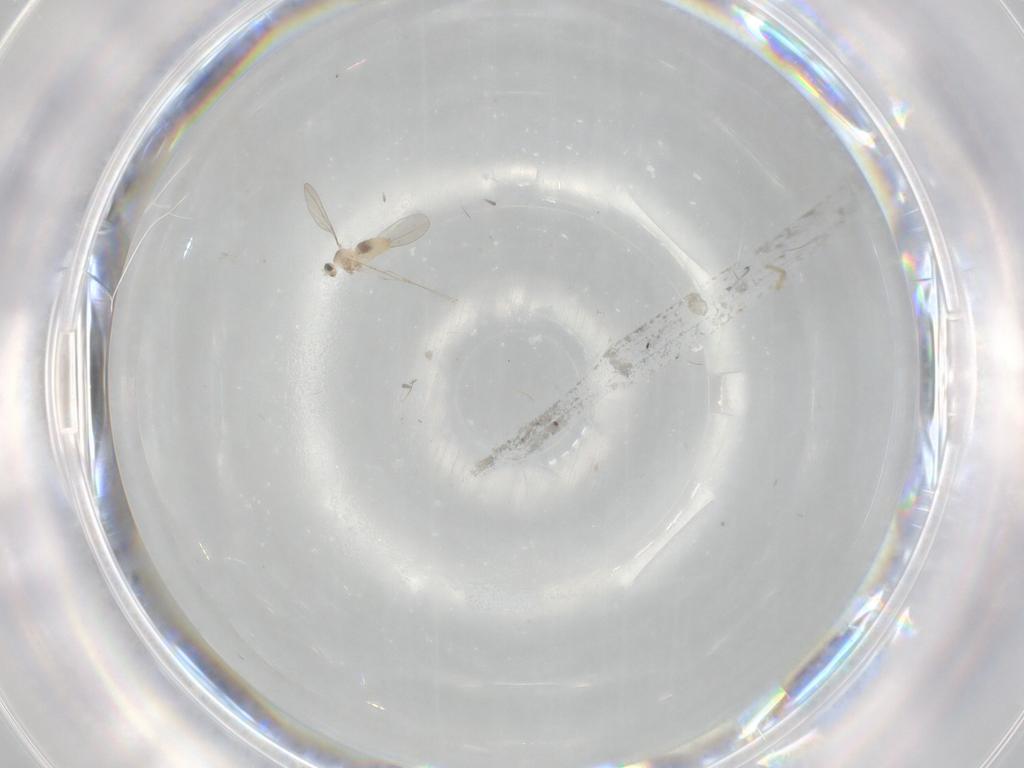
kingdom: Animalia
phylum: Arthropoda
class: Insecta
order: Diptera
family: Cecidomyiidae
